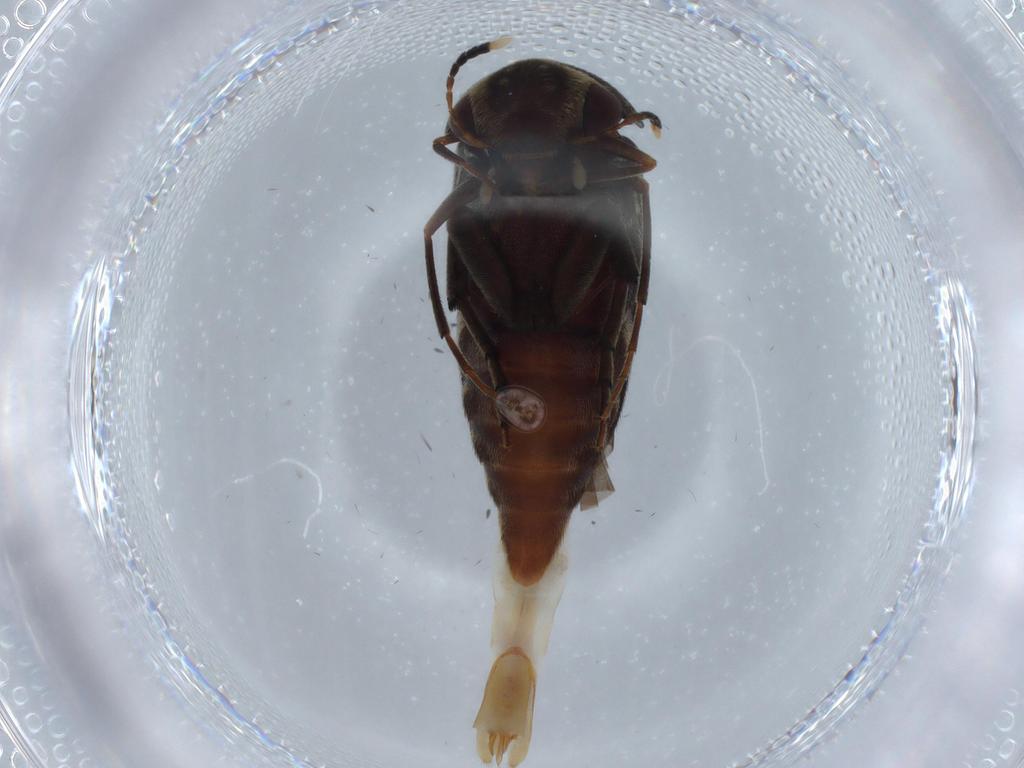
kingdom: Animalia
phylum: Arthropoda
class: Insecta
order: Coleoptera
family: Mordellidae
